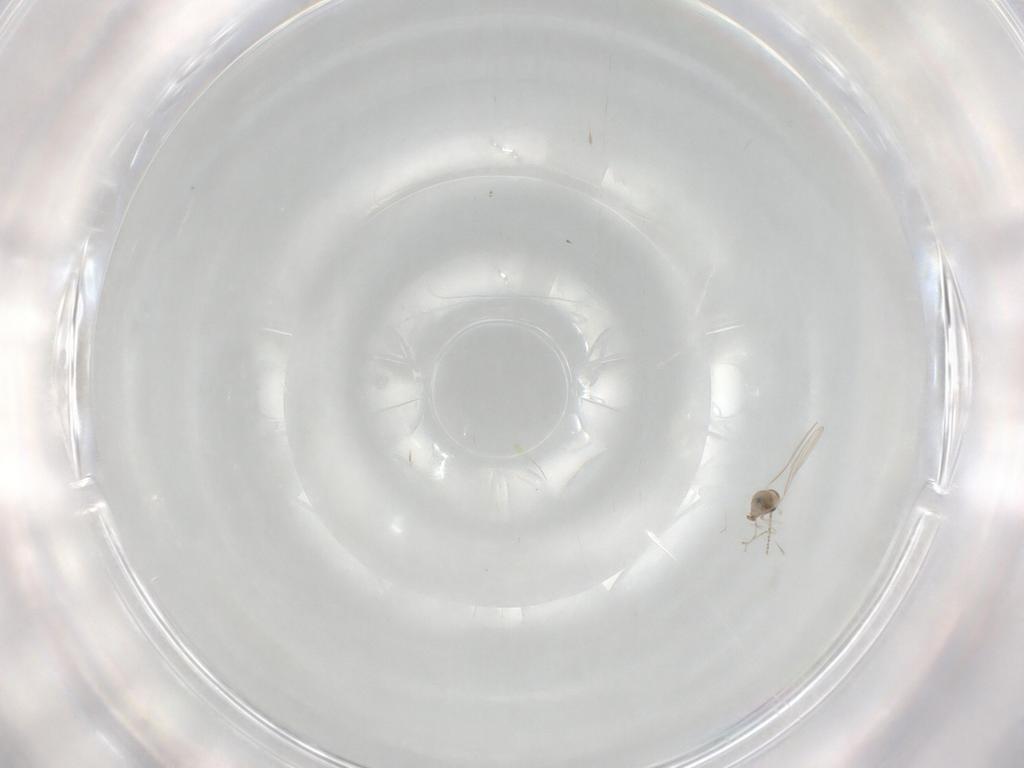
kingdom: Animalia
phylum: Arthropoda
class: Insecta
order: Diptera
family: Cecidomyiidae
